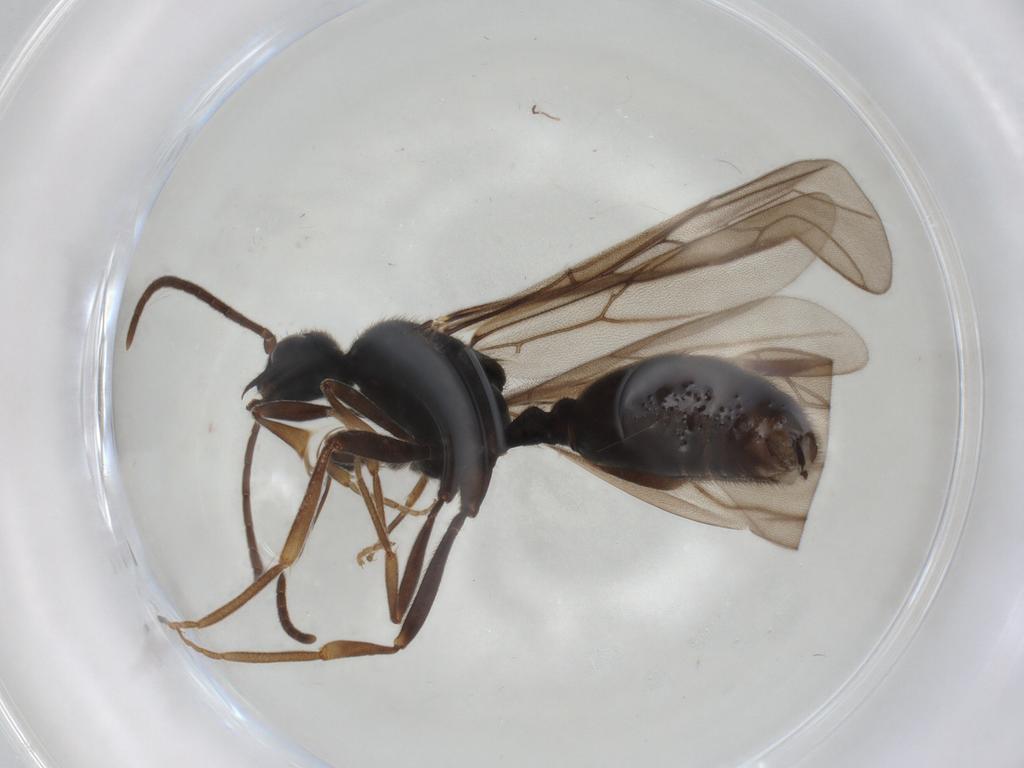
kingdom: Animalia
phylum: Arthropoda
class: Insecta
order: Hymenoptera
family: Formicidae
